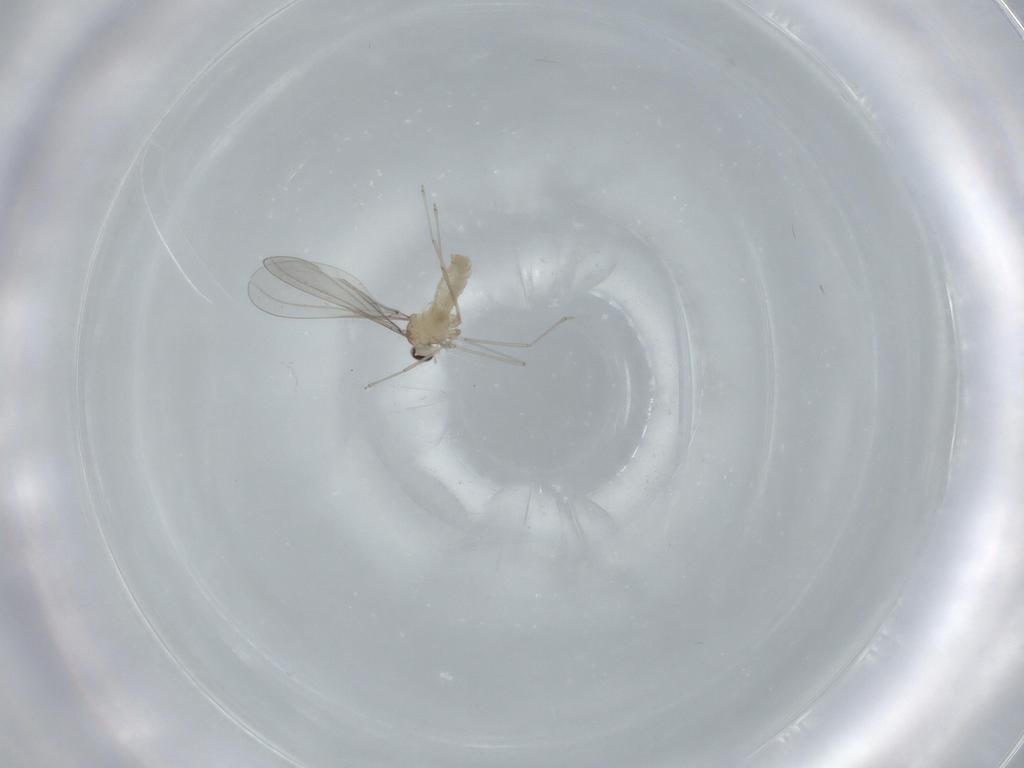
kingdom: Animalia
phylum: Arthropoda
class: Insecta
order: Diptera
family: Cecidomyiidae
